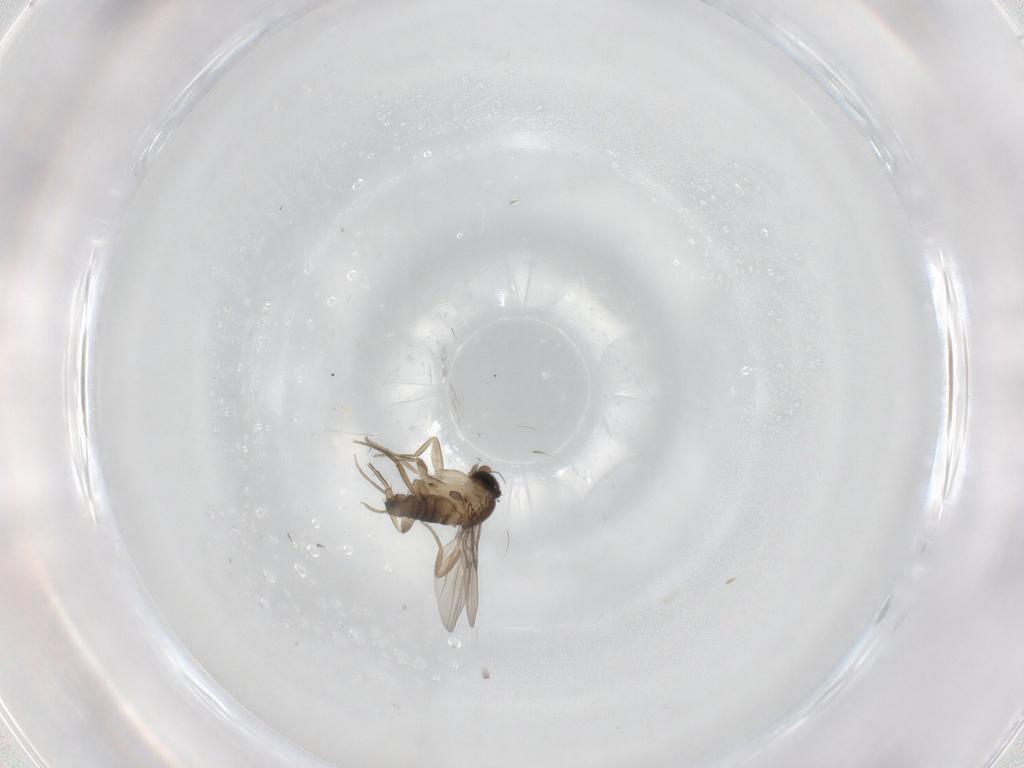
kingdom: Animalia
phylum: Arthropoda
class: Insecta
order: Diptera
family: Phoridae
